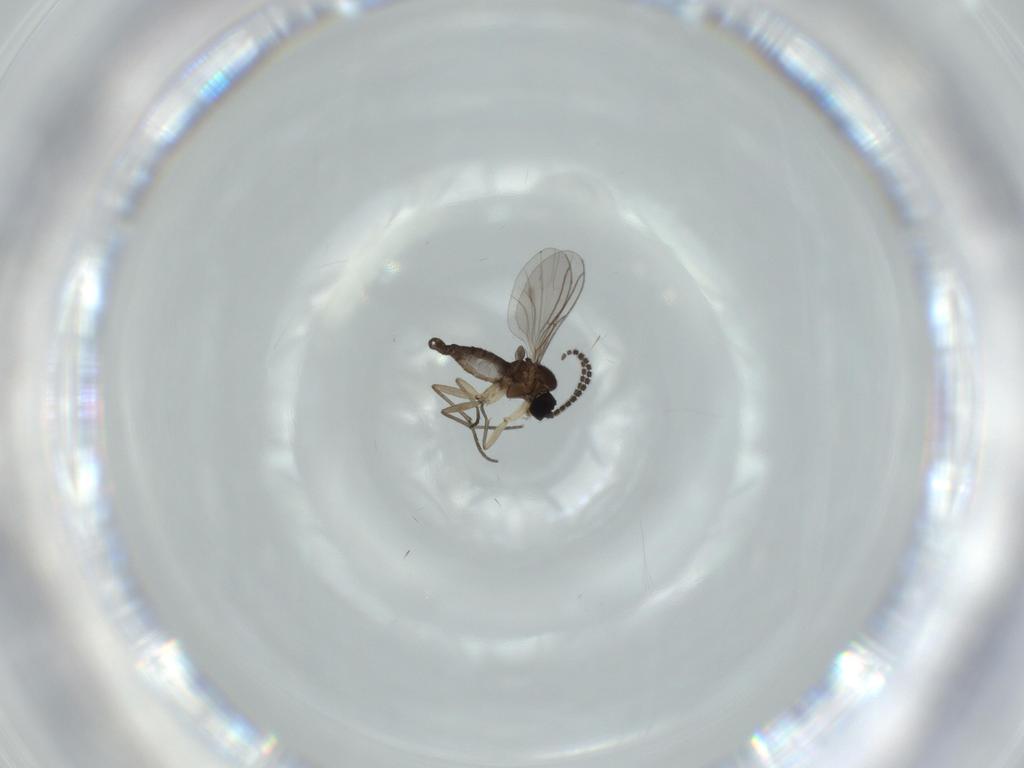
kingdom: Animalia
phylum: Arthropoda
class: Insecta
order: Diptera
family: Sciaridae
